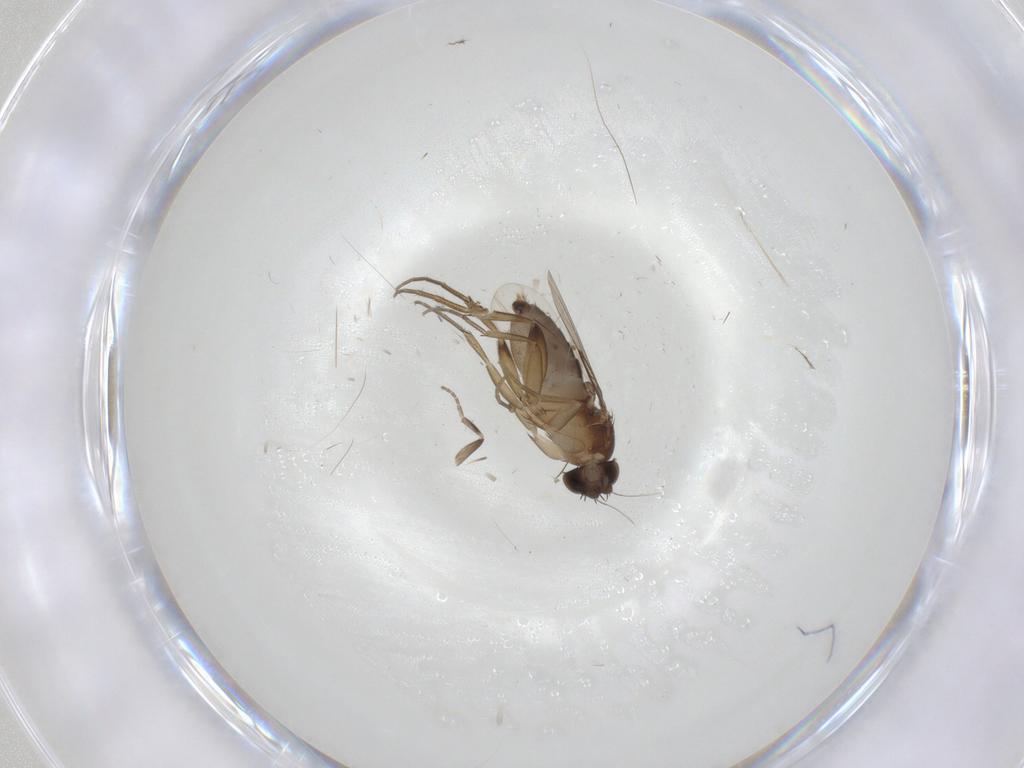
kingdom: Animalia
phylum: Arthropoda
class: Insecta
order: Diptera
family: Phoridae
